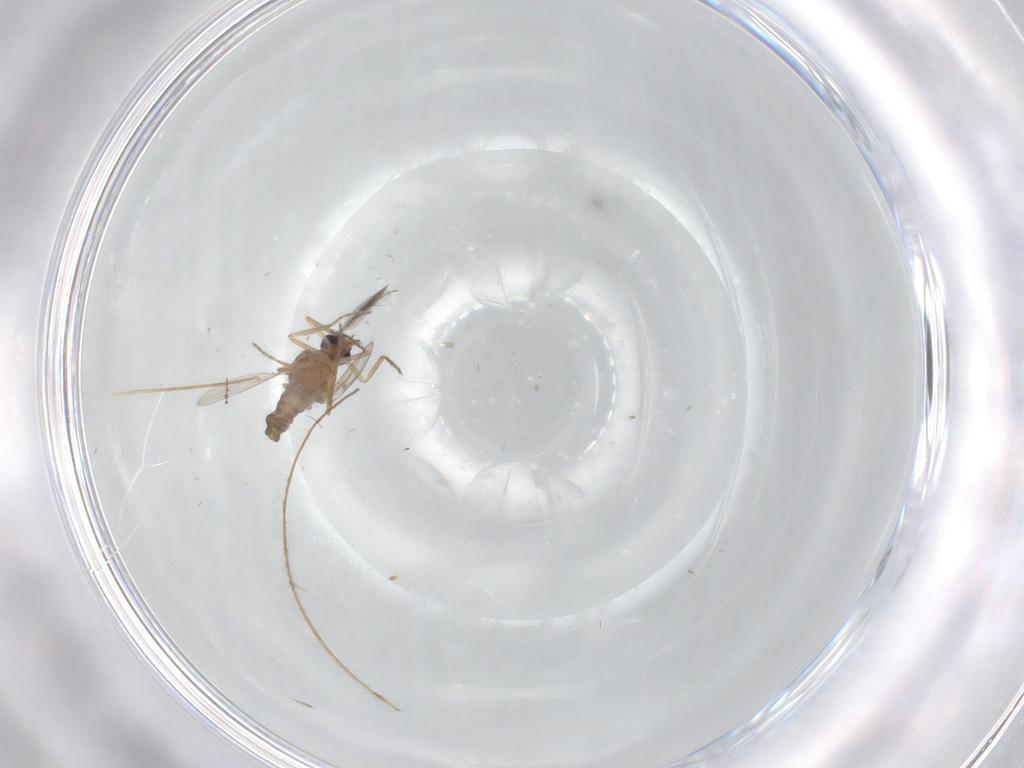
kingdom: Animalia
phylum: Arthropoda
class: Insecta
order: Diptera
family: Ceratopogonidae
